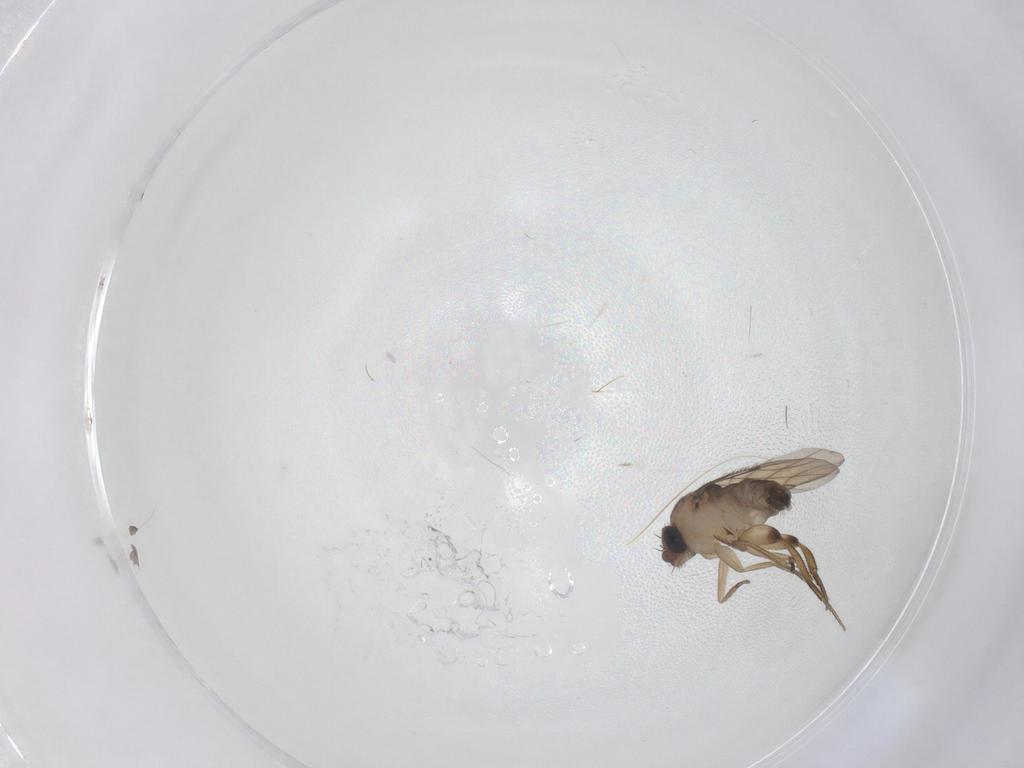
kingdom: Animalia
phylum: Arthropoda
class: Insecta
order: Diptera
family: Phoridae
